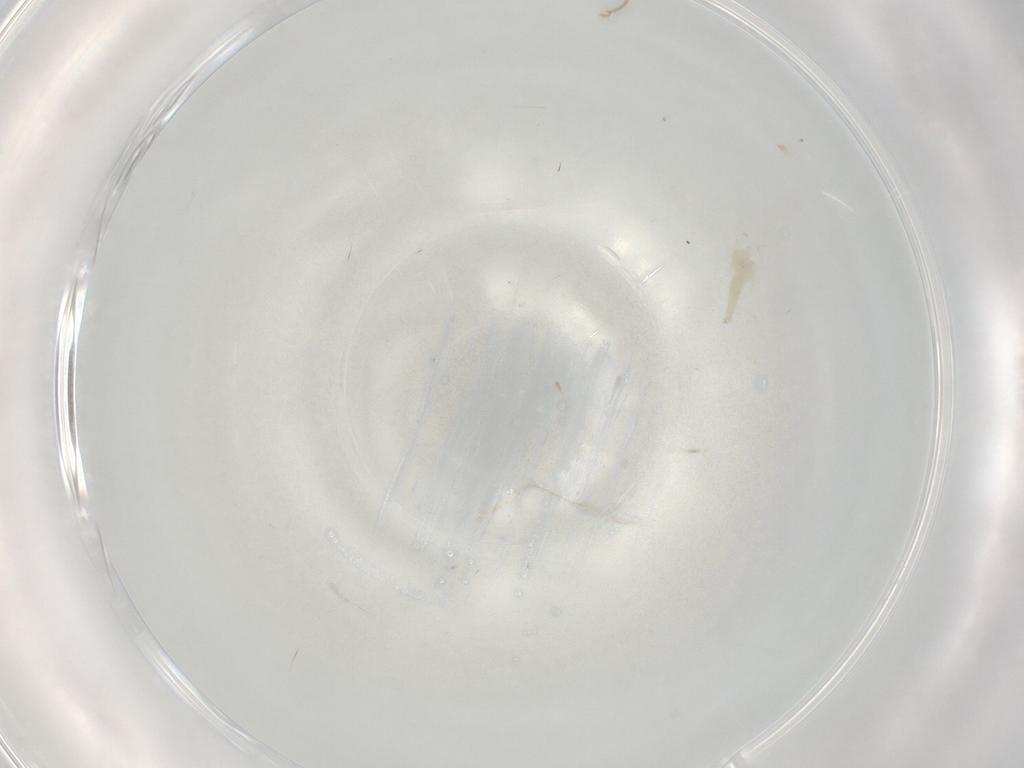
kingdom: Animalia
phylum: Arthropoda
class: Insecta
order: Diptera
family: Cecidomyiidae
